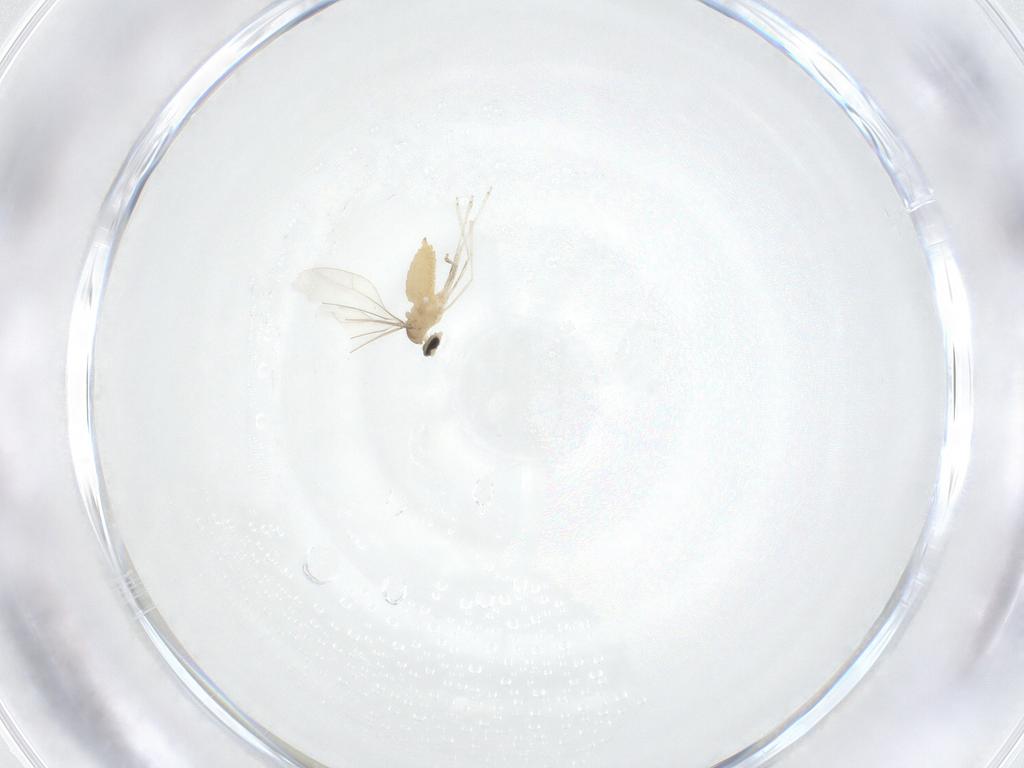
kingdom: Animalia
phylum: Arthropoda
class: Insecta
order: Diptera
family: Cecidomyiidae
